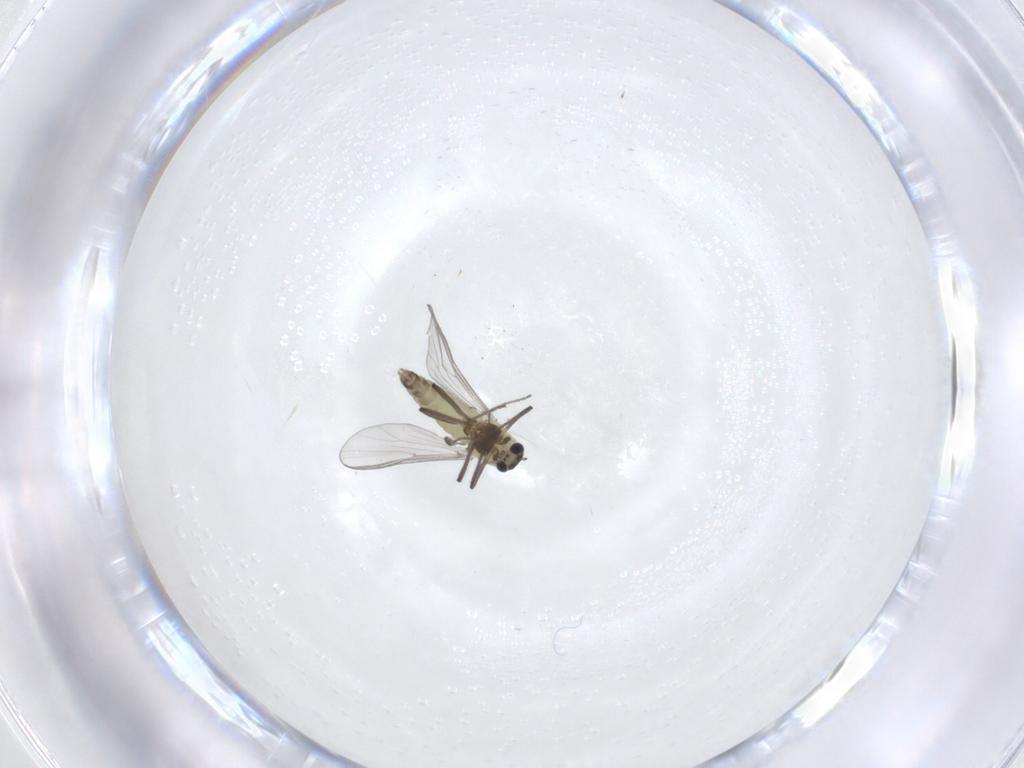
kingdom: Animalia
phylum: Arthropoda
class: Insecta
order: Diptera
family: Chironomidae
